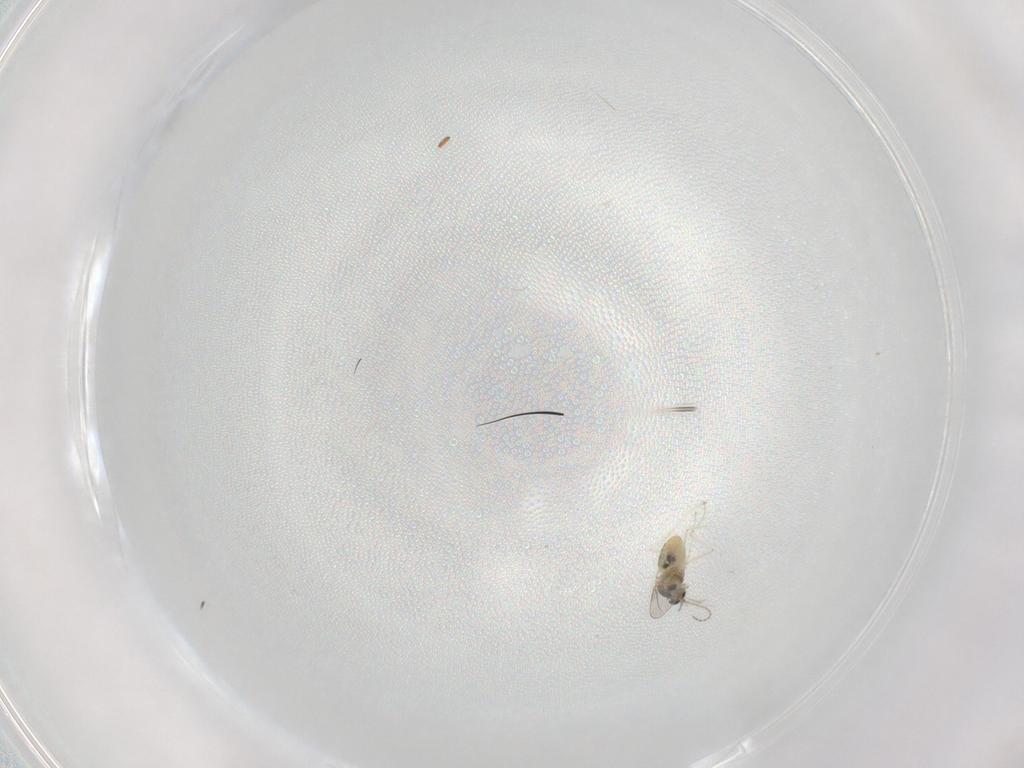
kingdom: Animalia
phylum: Arthropoda
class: Insecta
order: Diptera
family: Cecidomyiidae
